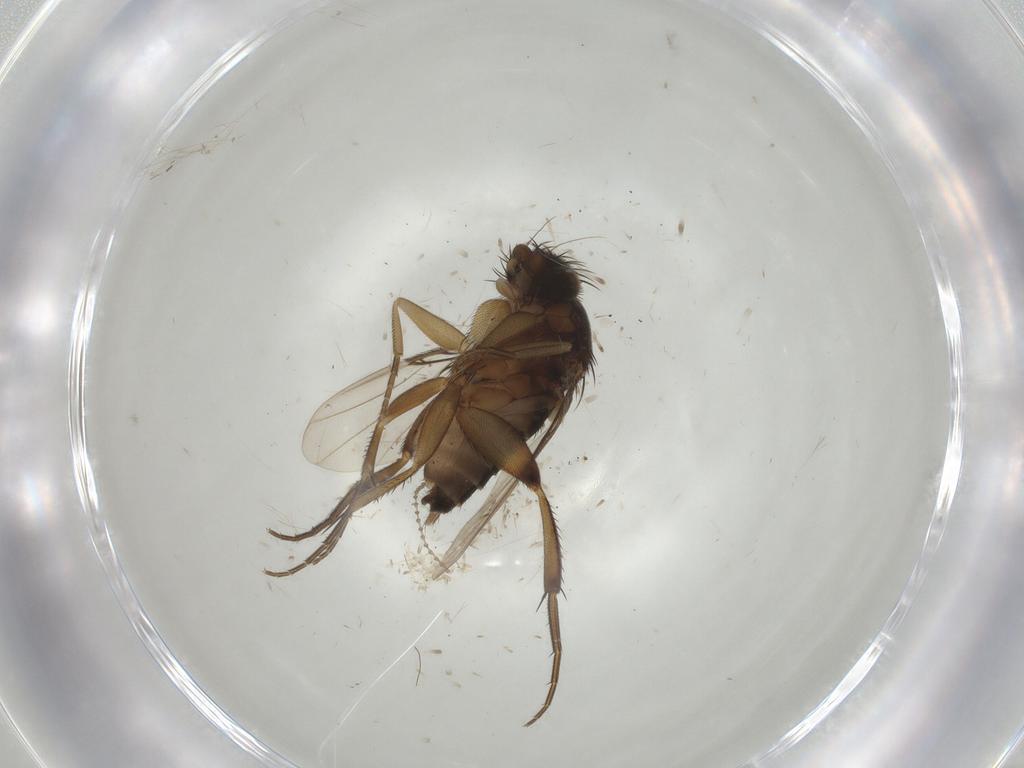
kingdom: Animalia
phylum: Arthropoda
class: Insecta
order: Diptera
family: Phoridae
